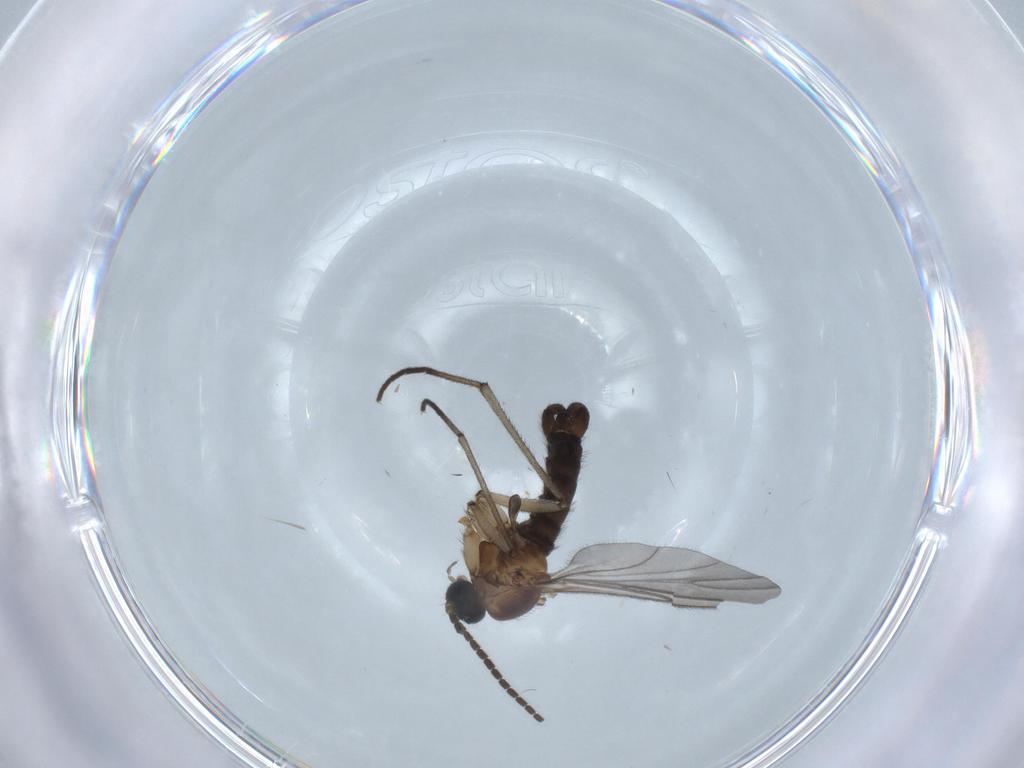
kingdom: Animalia
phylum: Arthropoda
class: Insecta
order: Diptera
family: Sciaridae
